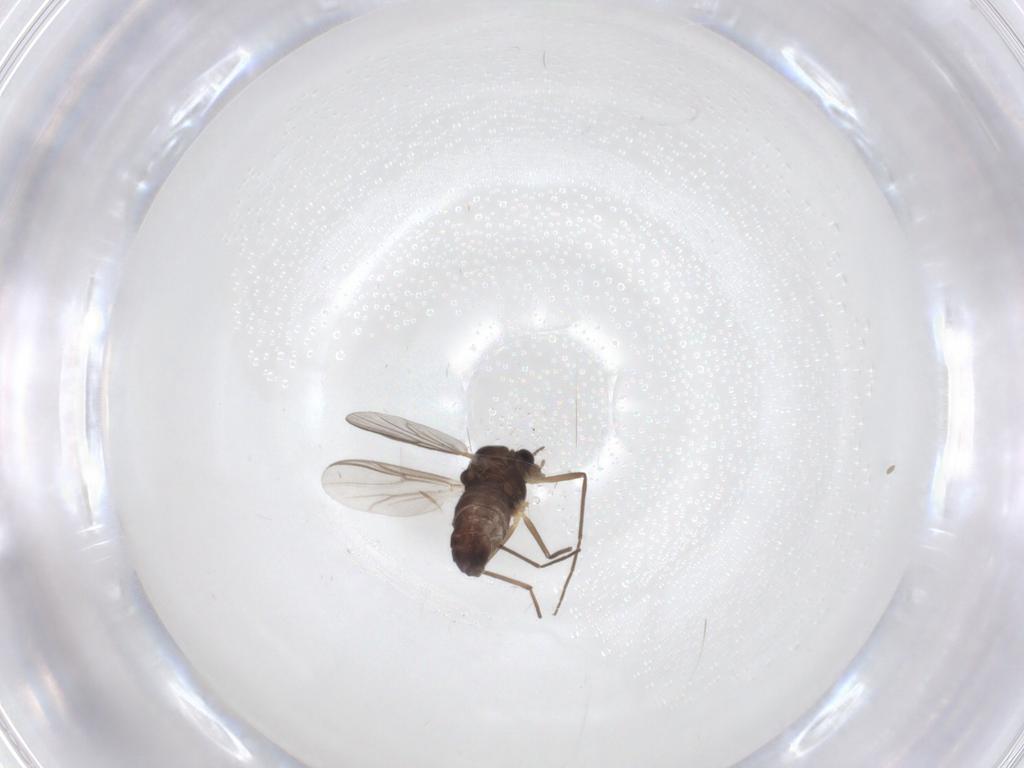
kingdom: Animalia
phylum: Arthropoda
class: Insecta
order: Diptera
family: Chironomidae
